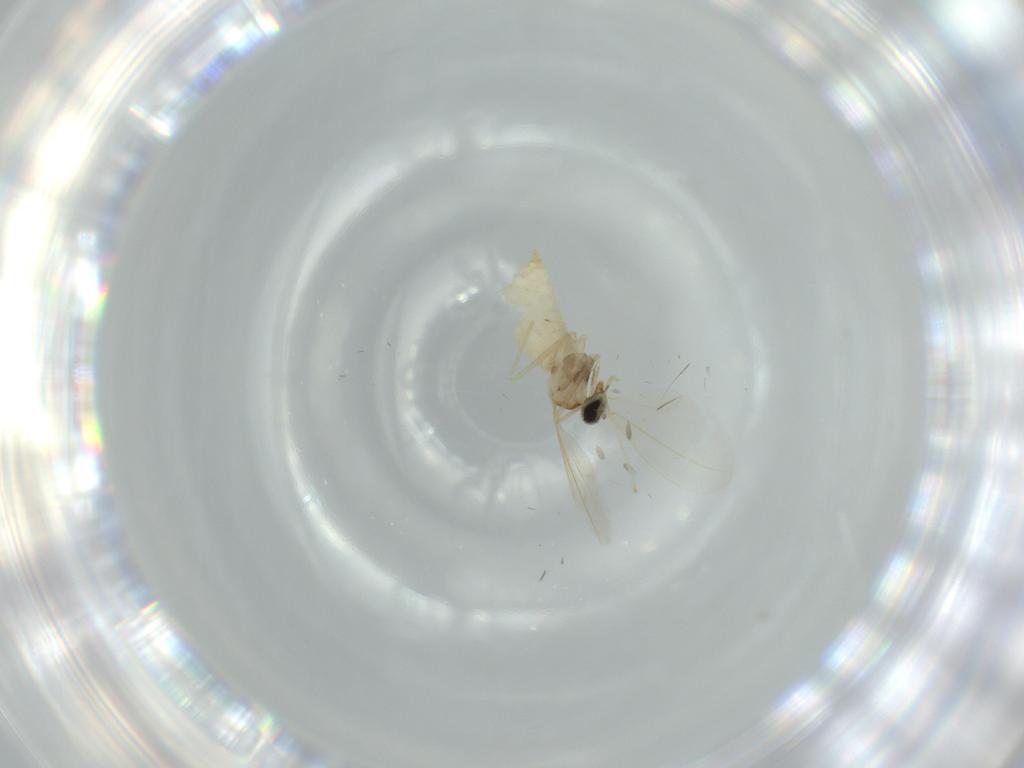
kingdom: Animalia
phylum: Arthropoda
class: Insecta
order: Diptera
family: Cecidomyiidae
